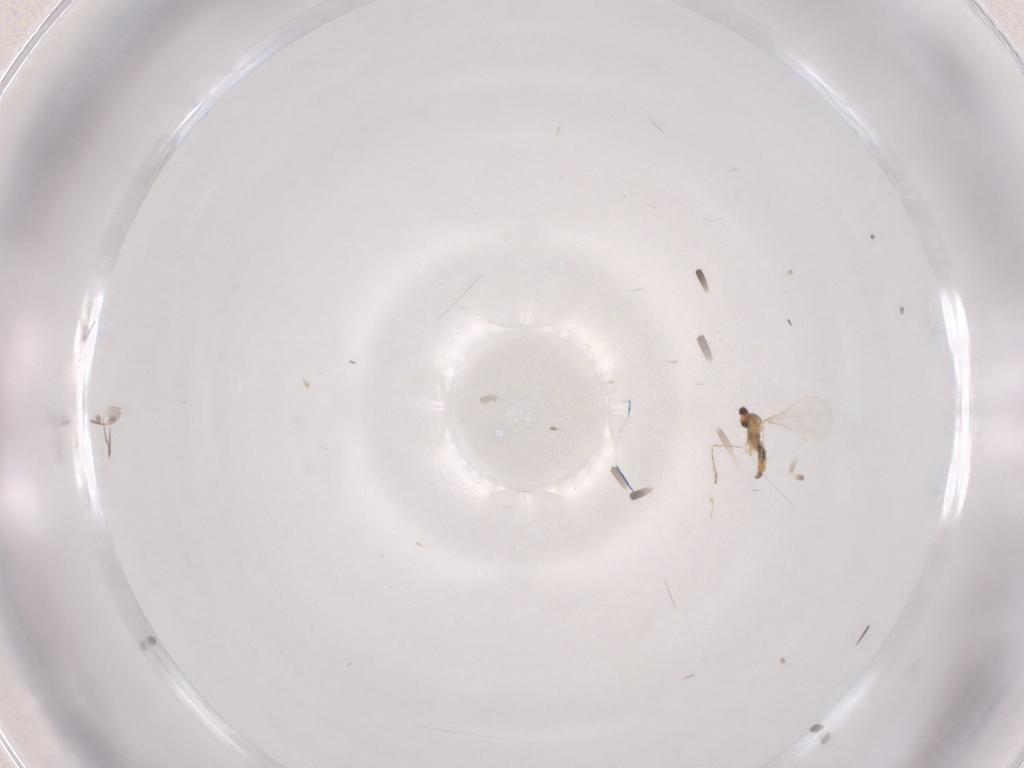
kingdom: Animalia
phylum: Arthropoda
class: Insecta
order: Diptera
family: Cecidomyiidae
